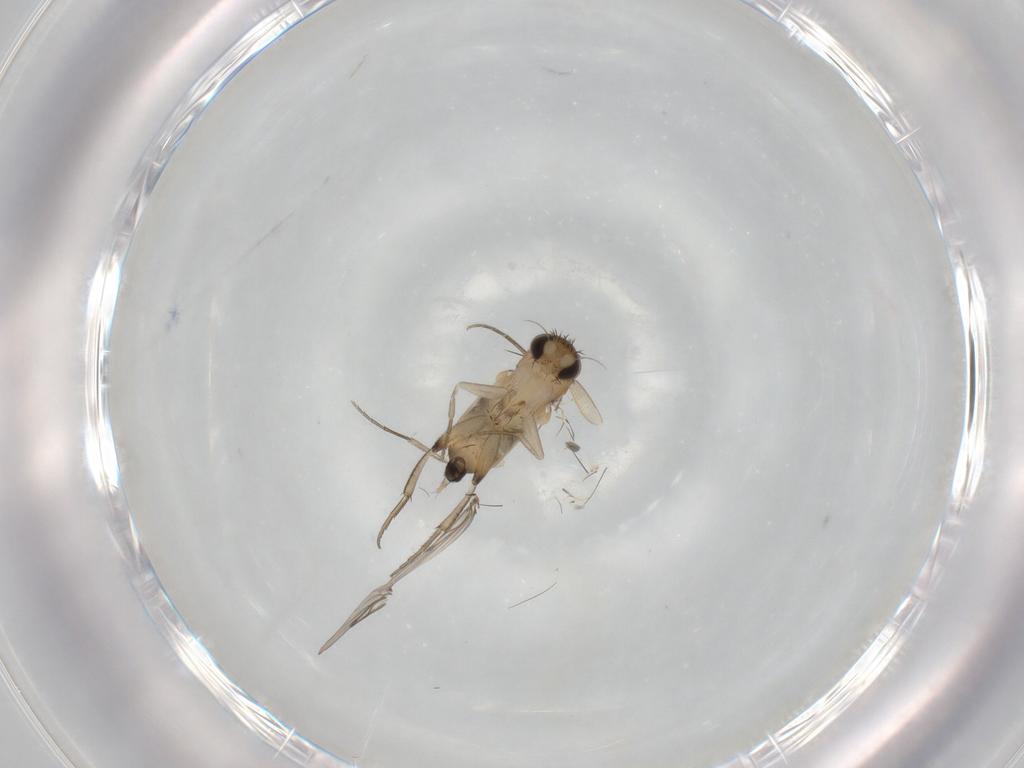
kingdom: Animalia
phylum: Arthropoda
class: Insecta
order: Diptera
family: Phoridae
